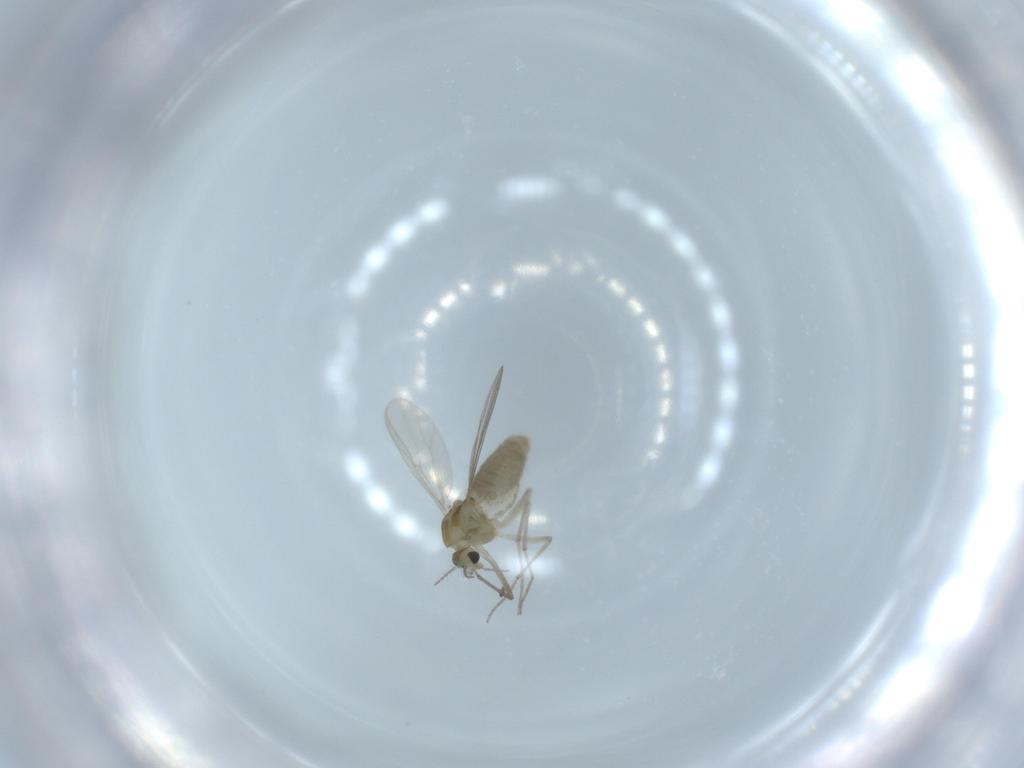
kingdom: Animalia
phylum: Arthropoda
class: Insecta
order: Diptera
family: Chironomidae
